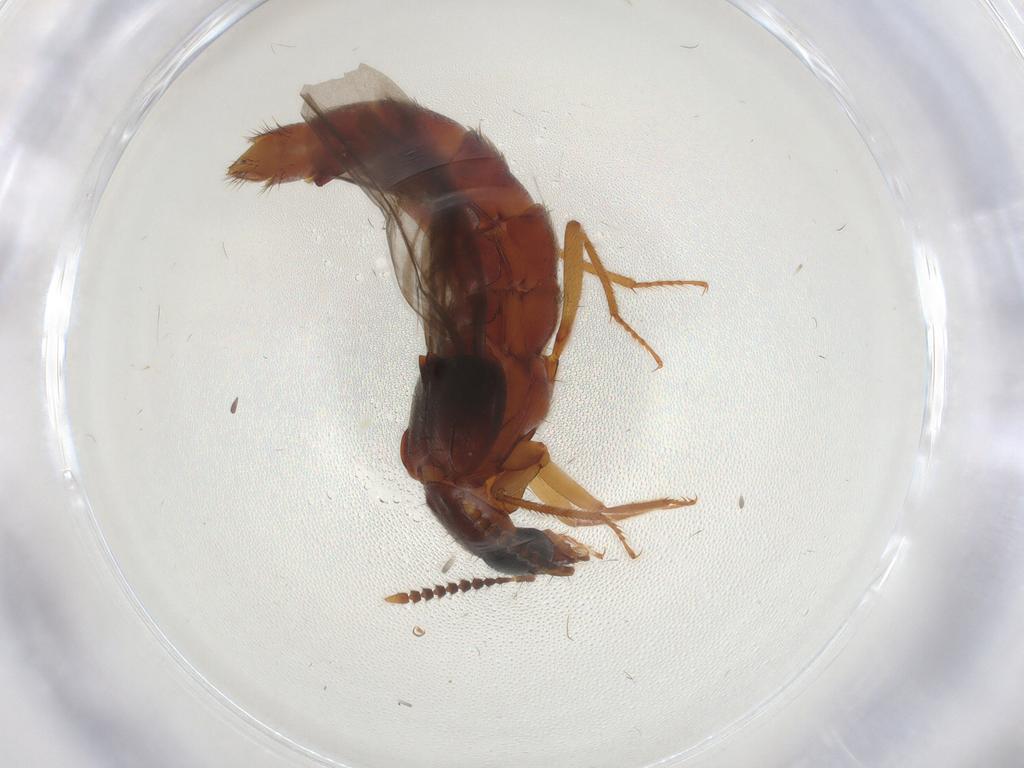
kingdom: Animalia
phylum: Arthropoda
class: Insecta
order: Coleoptera
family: Staphylinidae
